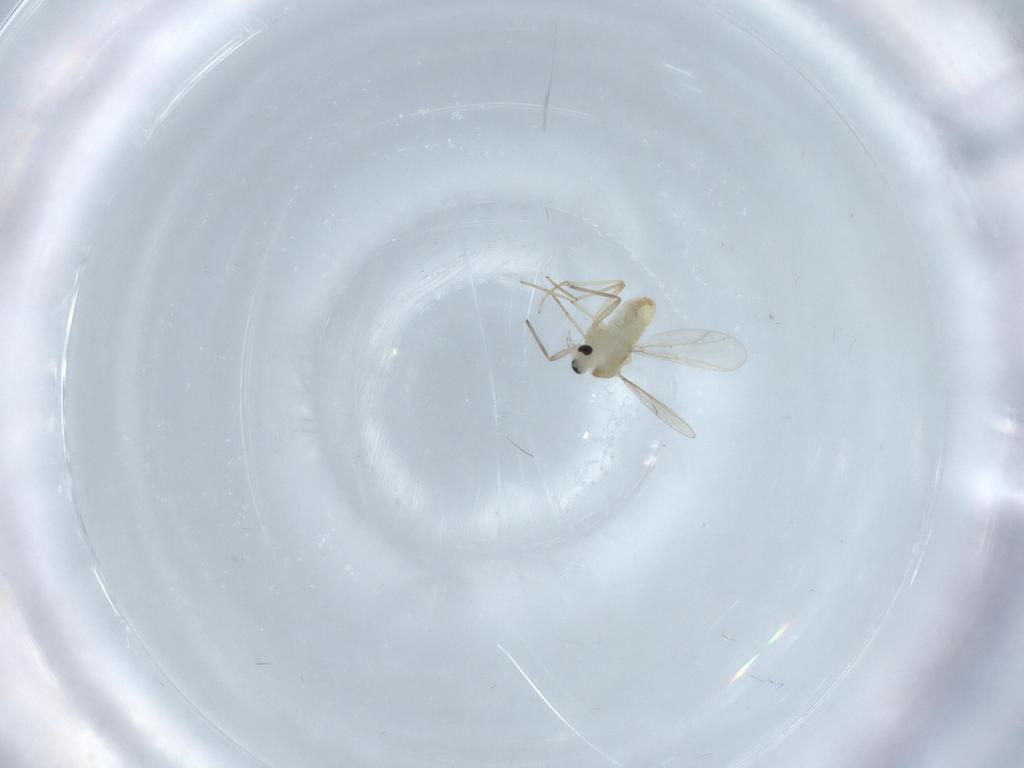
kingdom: Animalia
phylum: Arthropoda
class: Insecta
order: Diptera
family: Chironomidae
